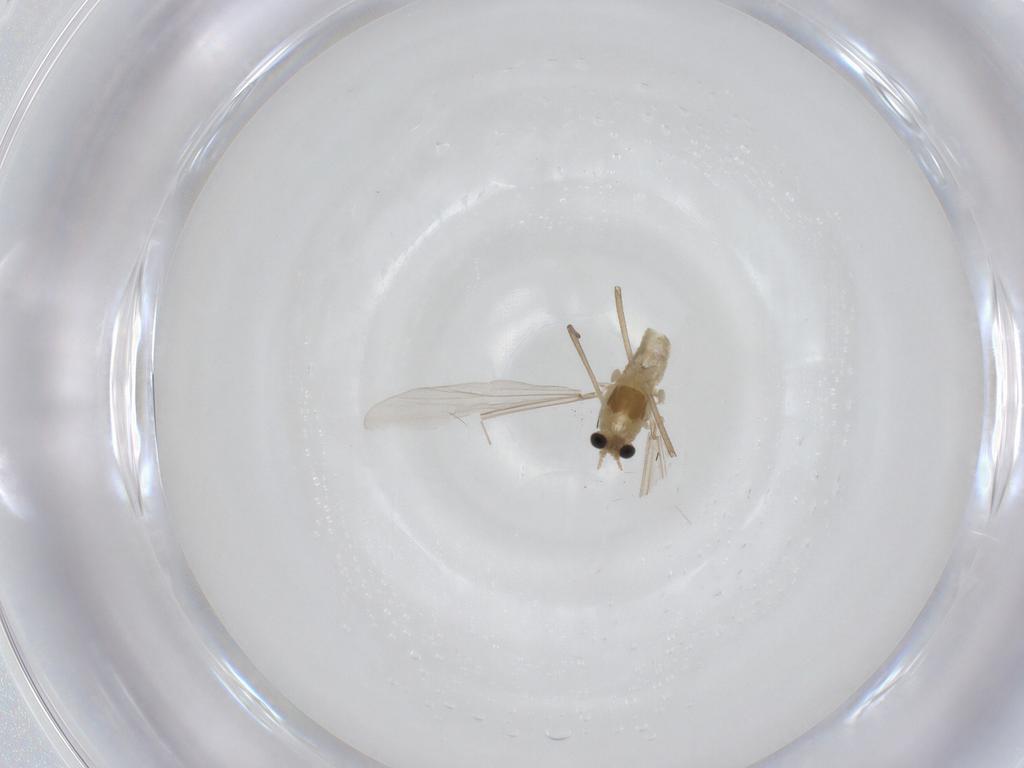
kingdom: Animalia
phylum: Arthropoda
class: Insecta
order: Diptera
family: Chironomidae
